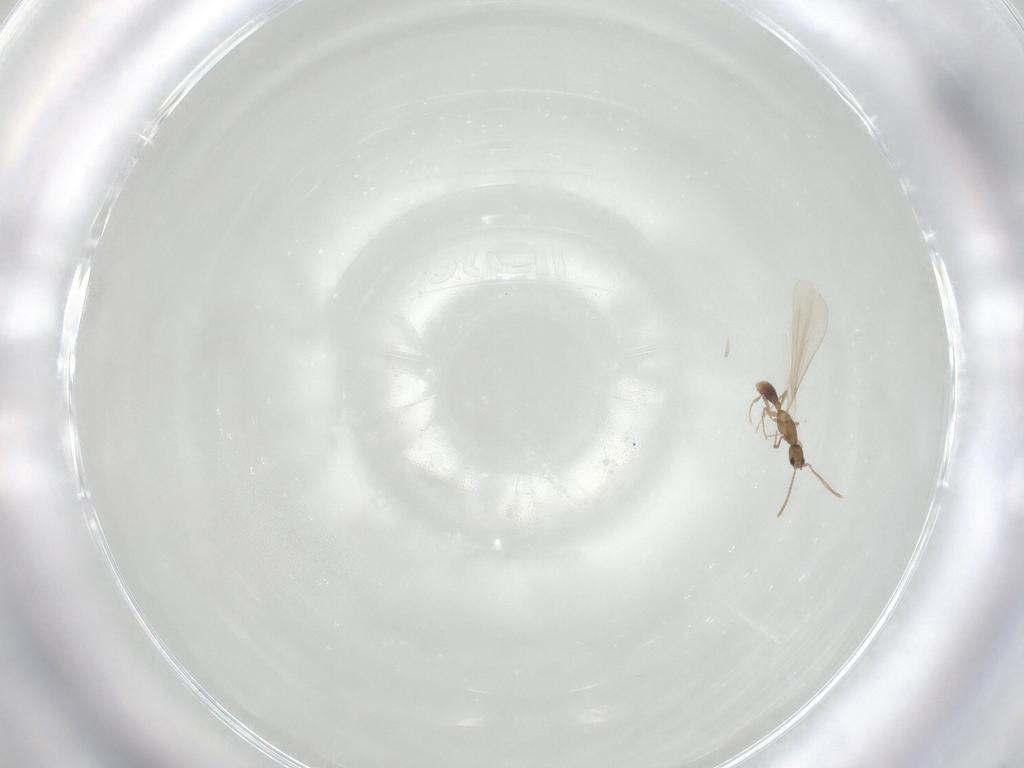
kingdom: Animalia
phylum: Arthropoda
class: Insecta
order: Hymenoptera
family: Formicidae
